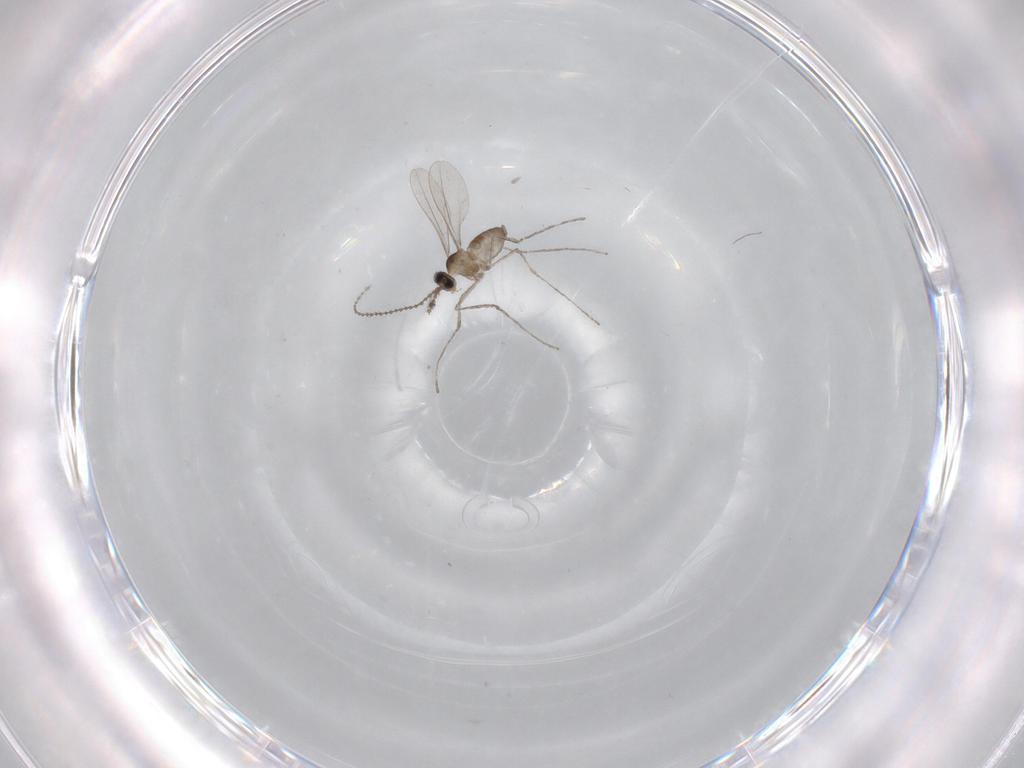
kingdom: Animalia
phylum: Arthropoda
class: Insecta
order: Diptera
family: Cecidomyiidae
